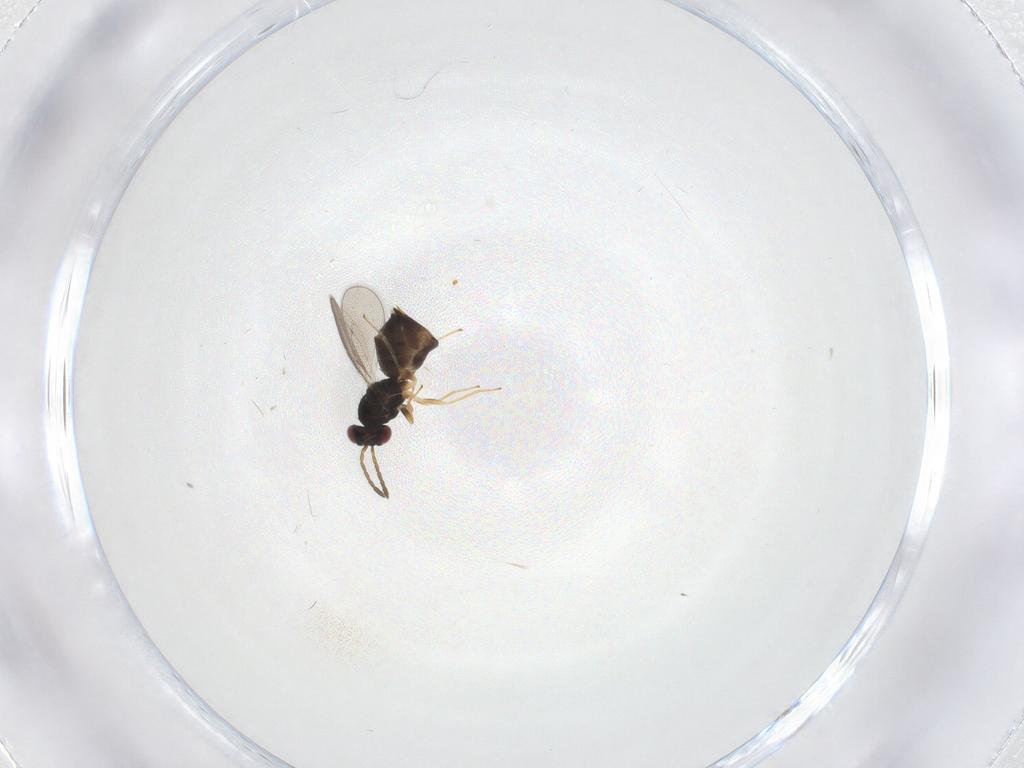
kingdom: Animalia
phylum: Arthropoda
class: Insecta
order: Hymenoptera
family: Eulophidae
